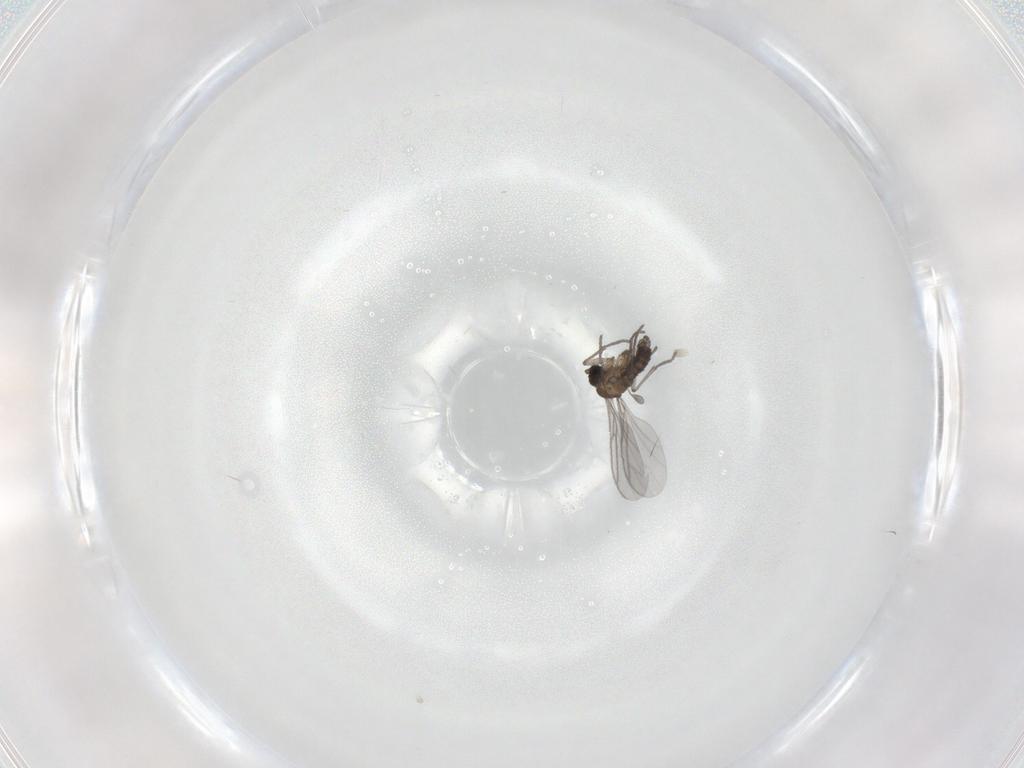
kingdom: Animalia
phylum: Arthropoda
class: Insecta
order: Diptera
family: Sciaridae
